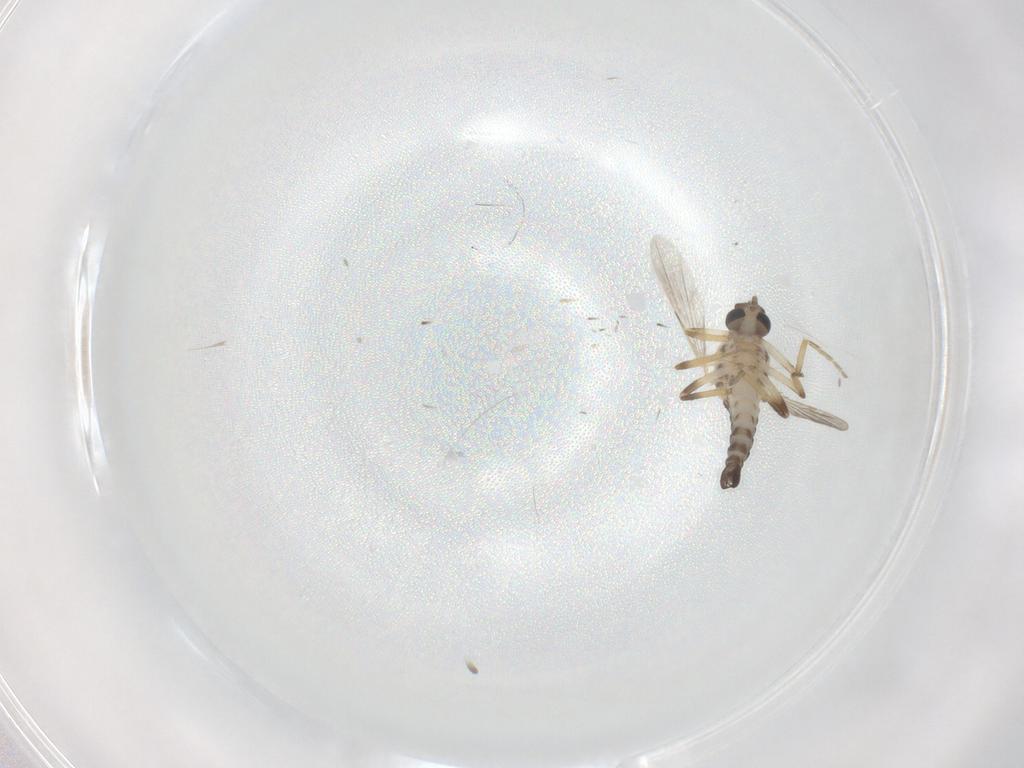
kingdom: Animalia
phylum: Arthropoda
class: Insecta
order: Diptera
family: Ceratopogonidae
